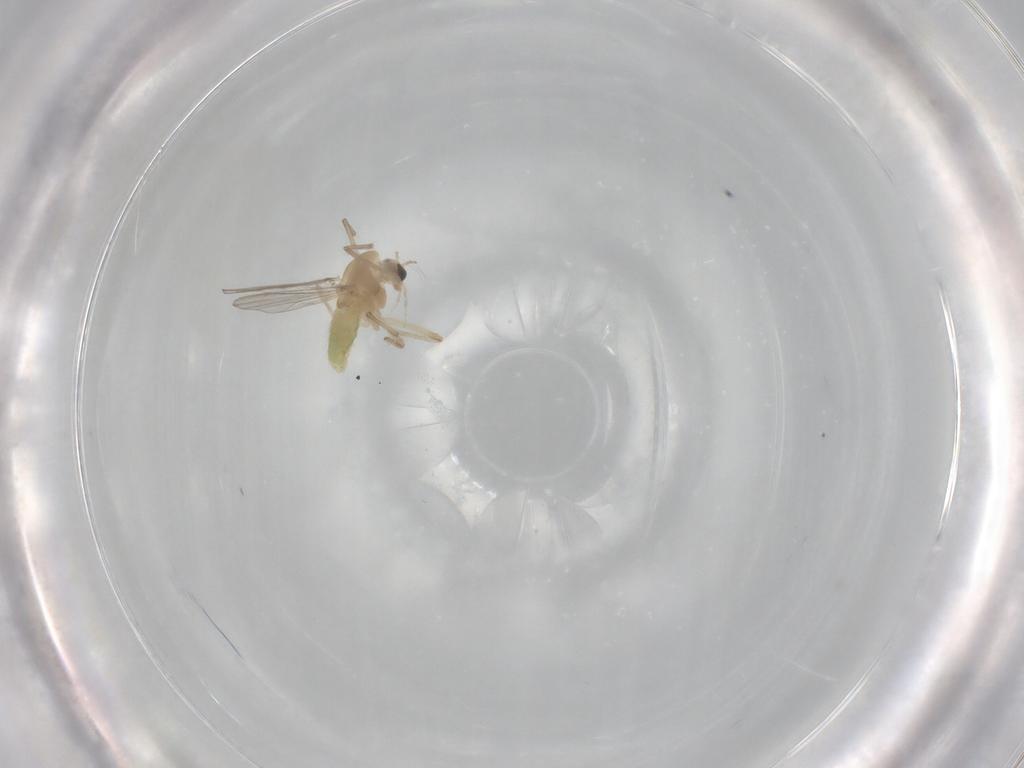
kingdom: Animalia
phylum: Arthropoda
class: Insecta
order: Diptera
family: Chironomidae
